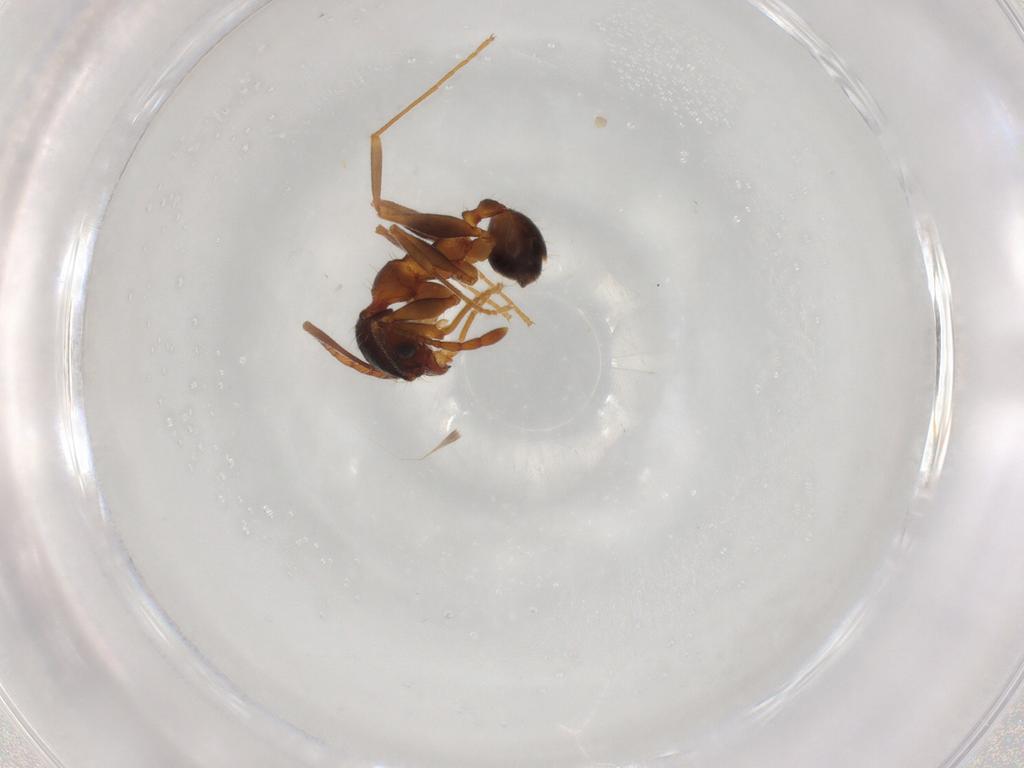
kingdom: Animalia
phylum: Arthropoda
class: Insecta
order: Hymenoptera
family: Formicidae
